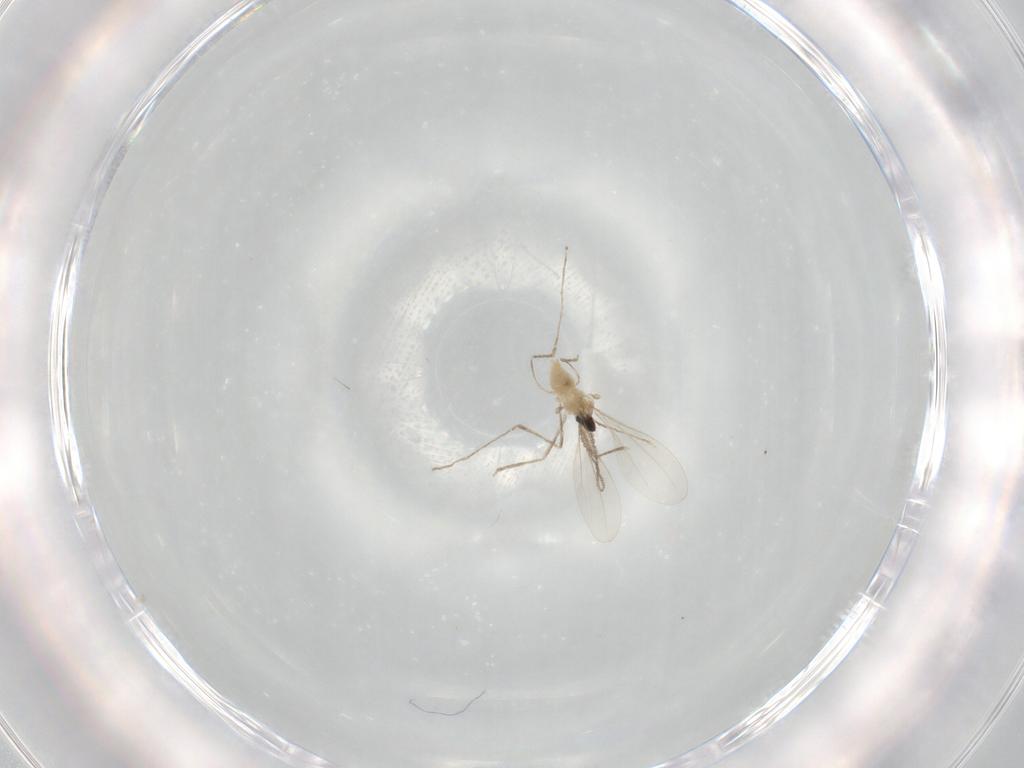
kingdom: Animalia
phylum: Arthropoda
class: Insecta
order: Diptera
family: Cecidomyiidae
